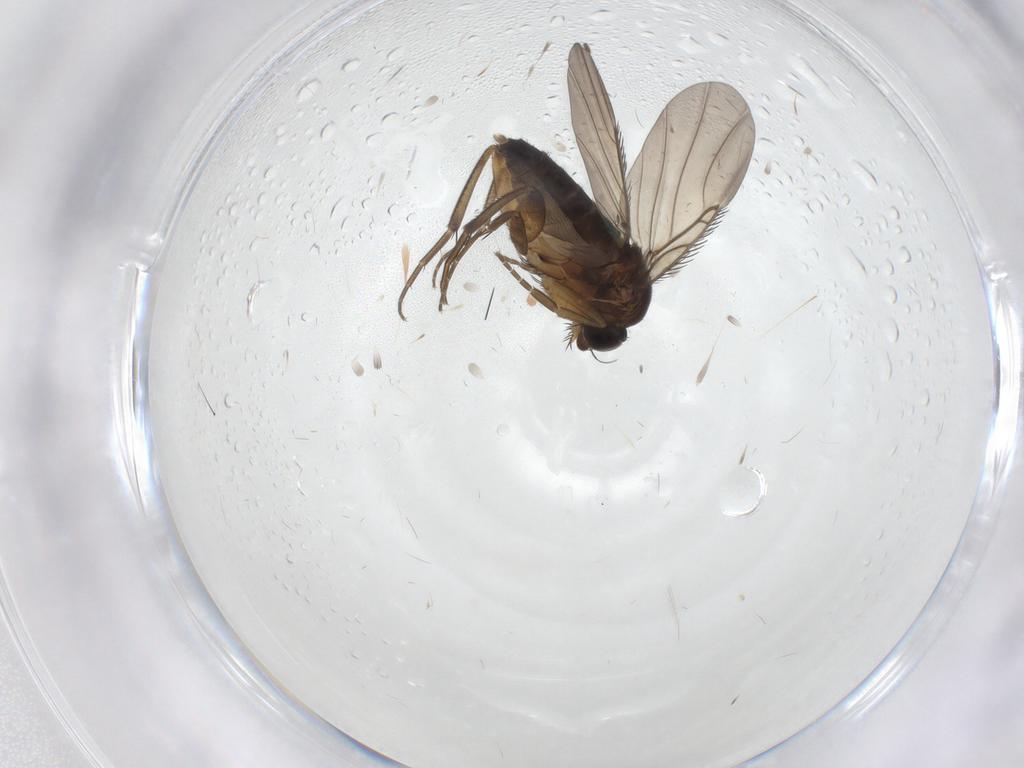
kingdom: Animalia
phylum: Arthropoda
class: Insecta
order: Diptera
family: Phoridae
